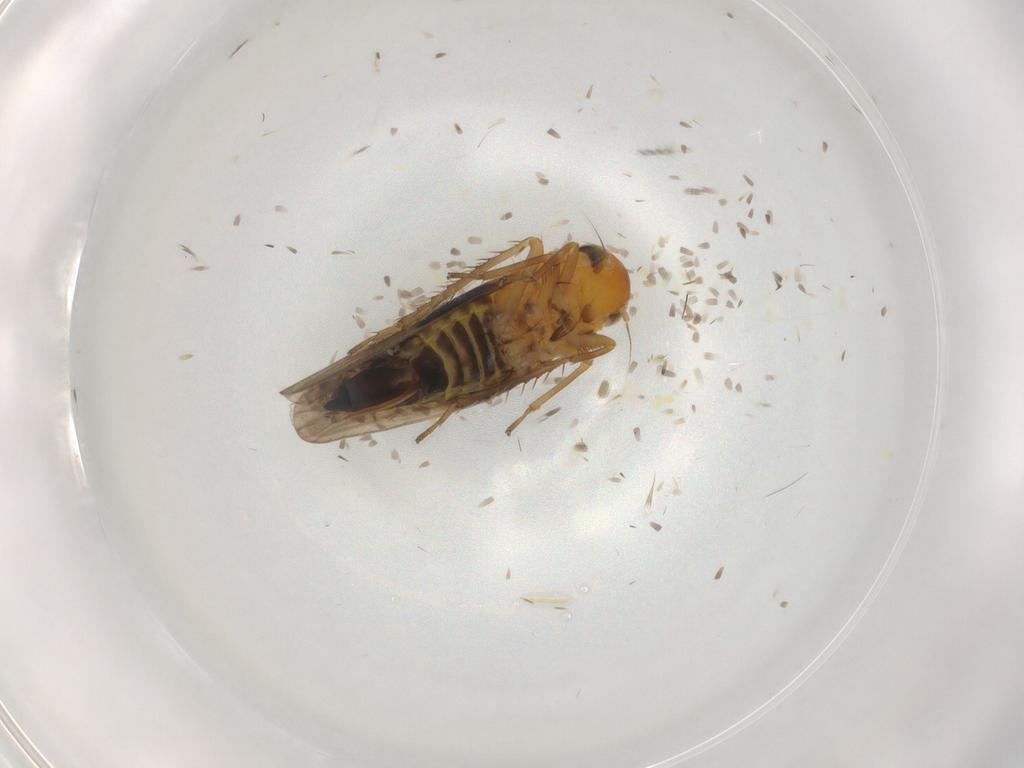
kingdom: Animalia
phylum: Arthropoda
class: Insecta
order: Hemiptera
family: Cicadellidae
